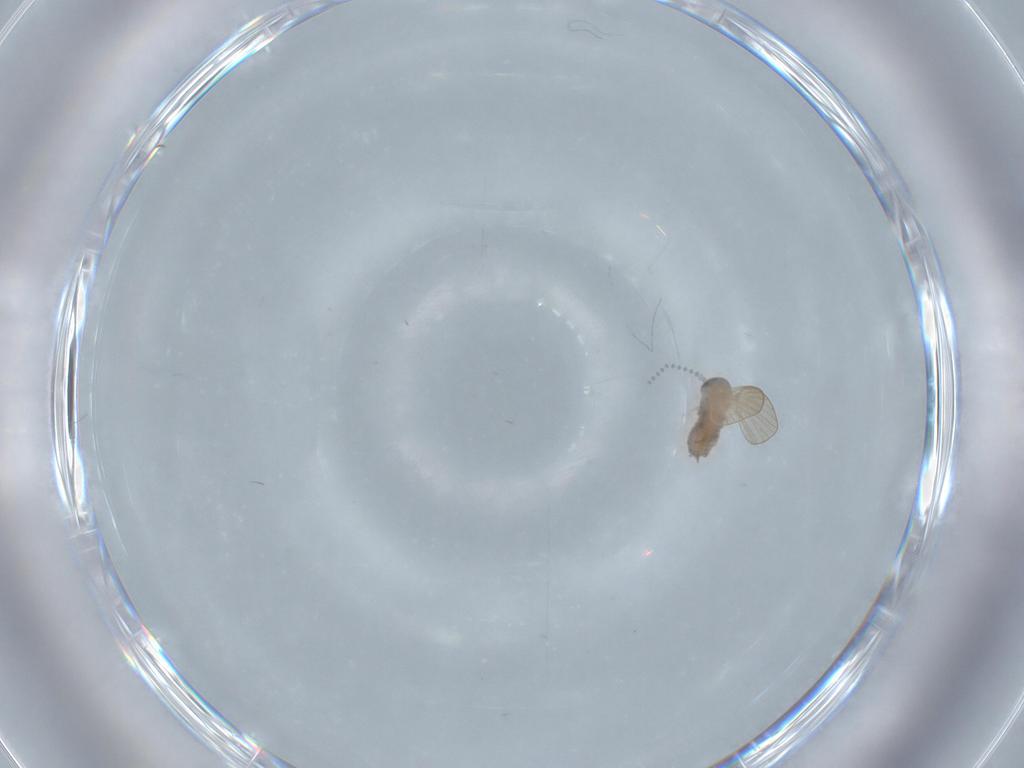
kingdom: Animalia
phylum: Arthropoda
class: Insecta
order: Diptera
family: Psychodidae
